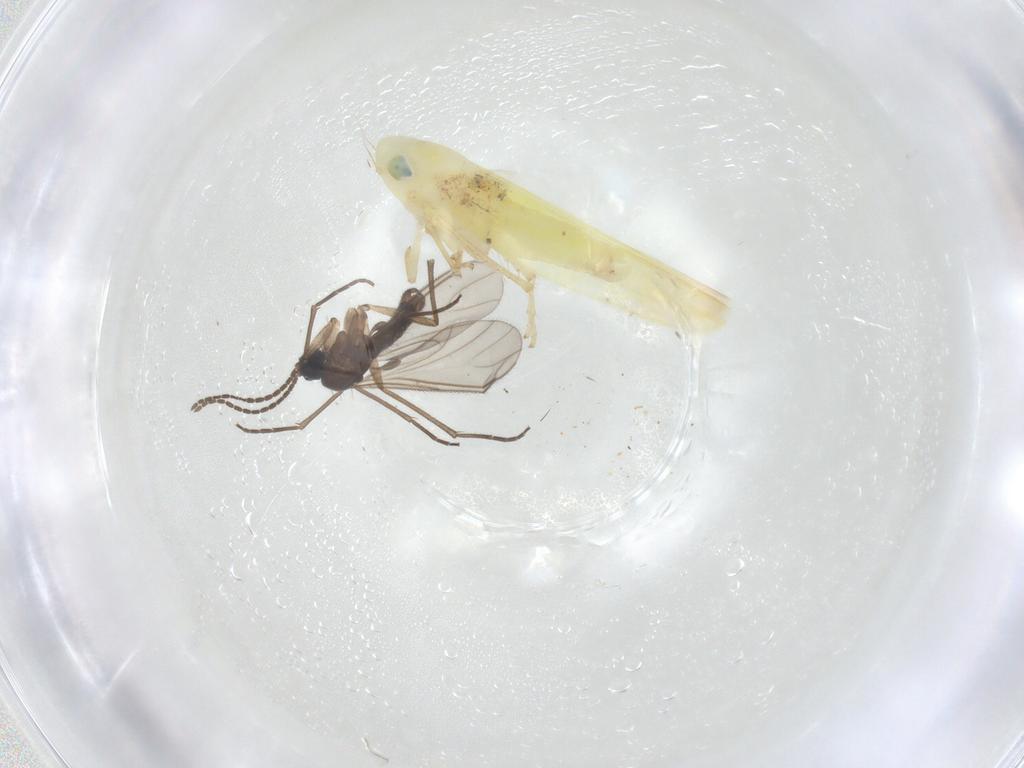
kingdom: Animalia
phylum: Arthropoda
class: Insecta
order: Diptera
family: Sciaridae
